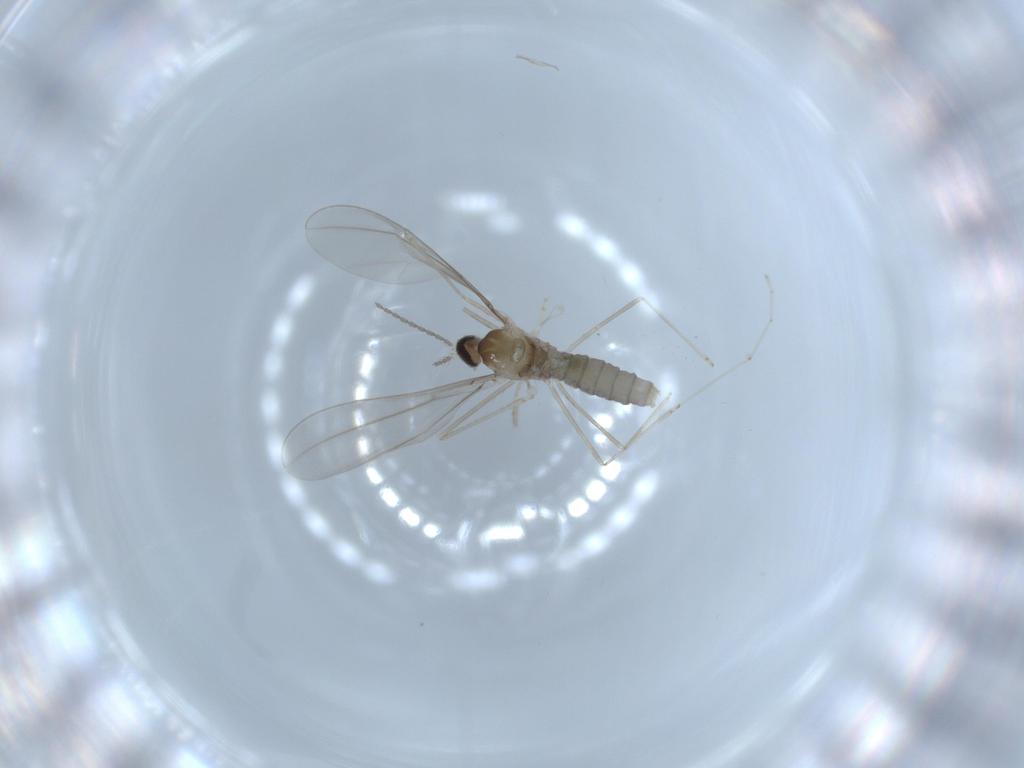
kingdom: Animalia
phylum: Arthropoda
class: Insecta
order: Diptera
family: Cecidomyiidae
